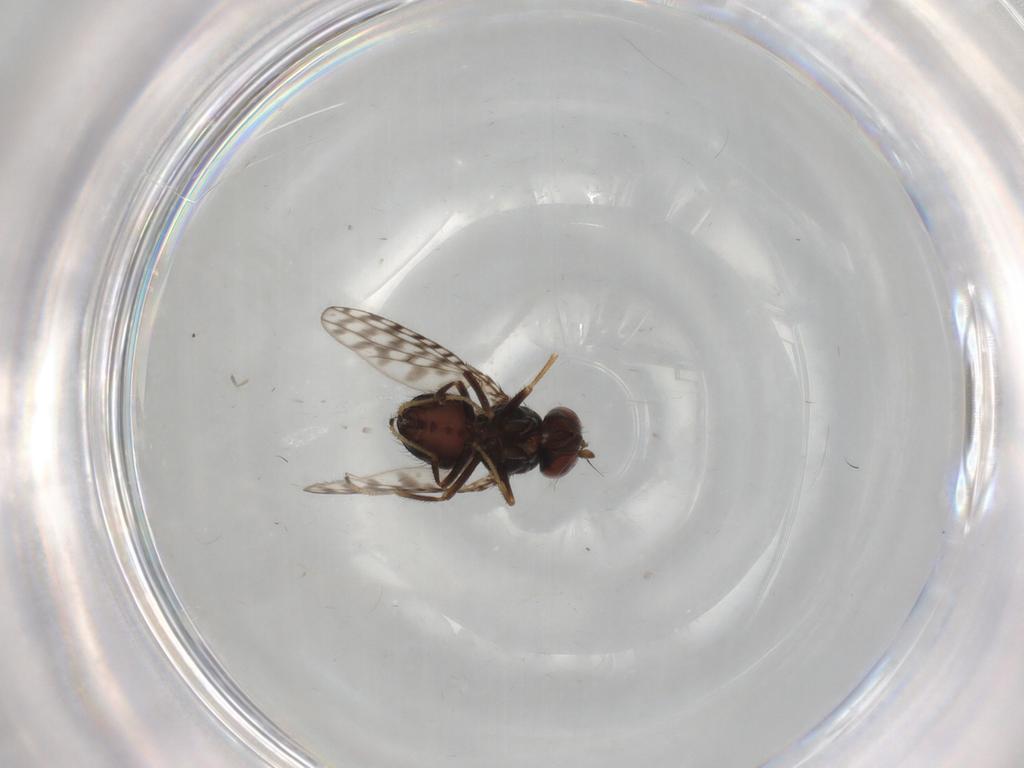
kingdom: Animalia
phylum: Arthropoda
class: Insecta
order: Diptera
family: Ephydridae
